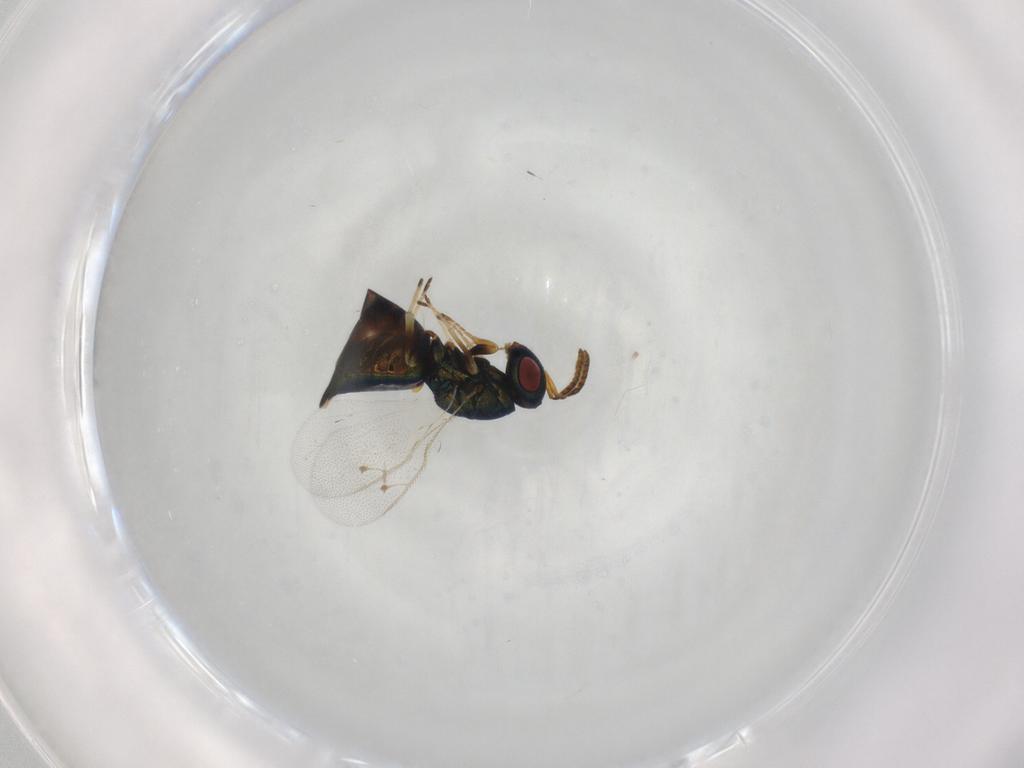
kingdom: Animalia
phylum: Arthropoda
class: Insecta
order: Hymenoptera
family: Pteromalidae
